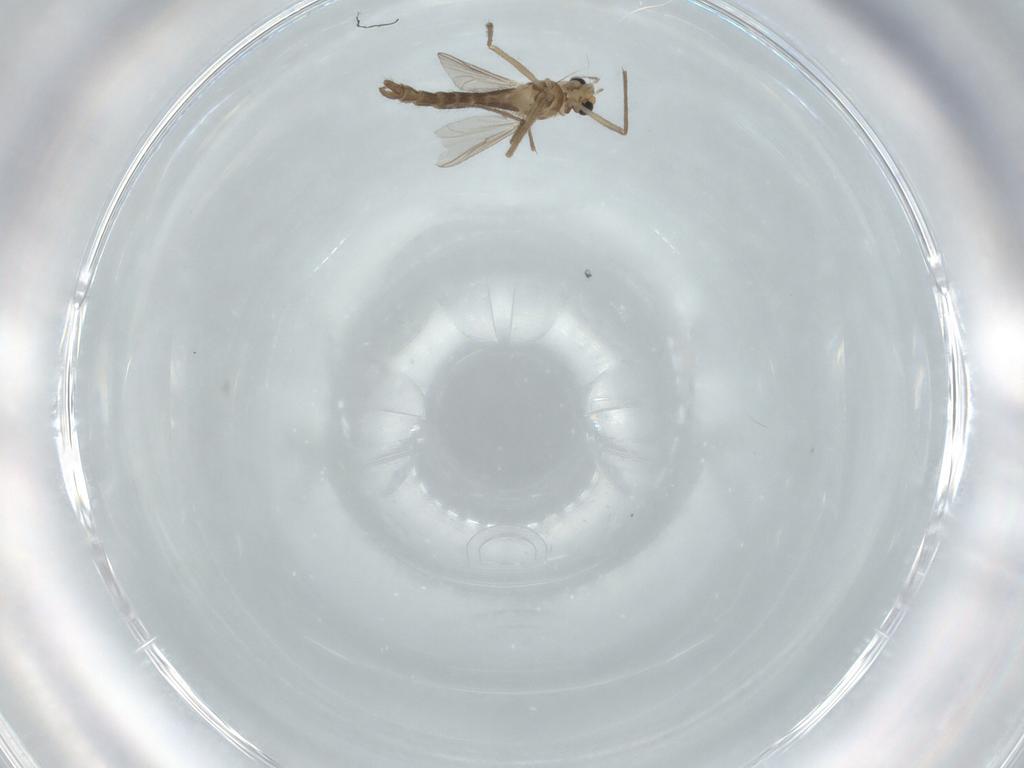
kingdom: Animalia
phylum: Arthropoda
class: Insecta
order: Diptera
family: Chironomidae
